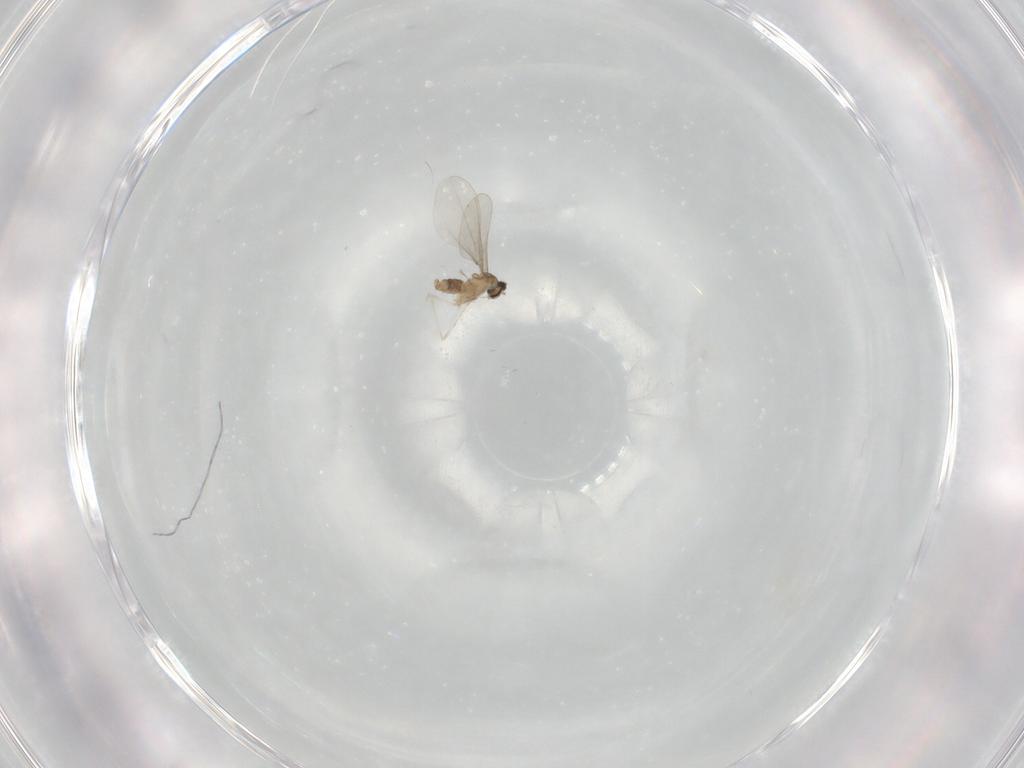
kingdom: Animalia
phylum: Arthropoda
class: Insecta
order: Diptera
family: Cecidomyiidae
